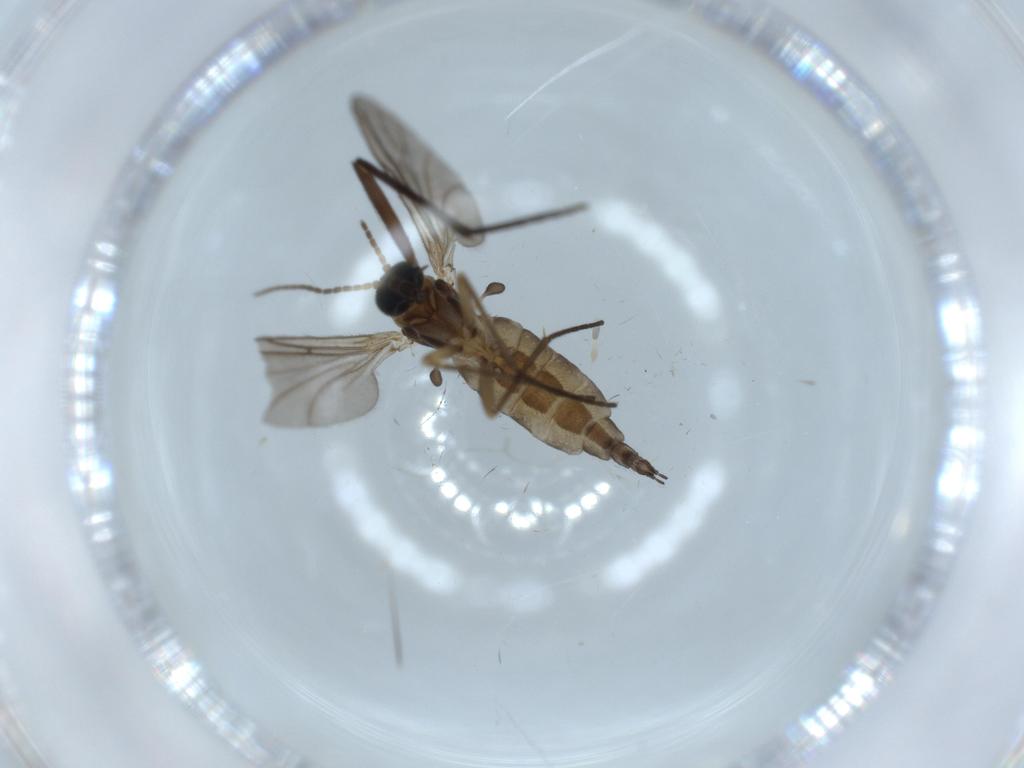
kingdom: Animalia
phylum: Arthropoda
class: Insecta
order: Diptera
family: Sciaridae
